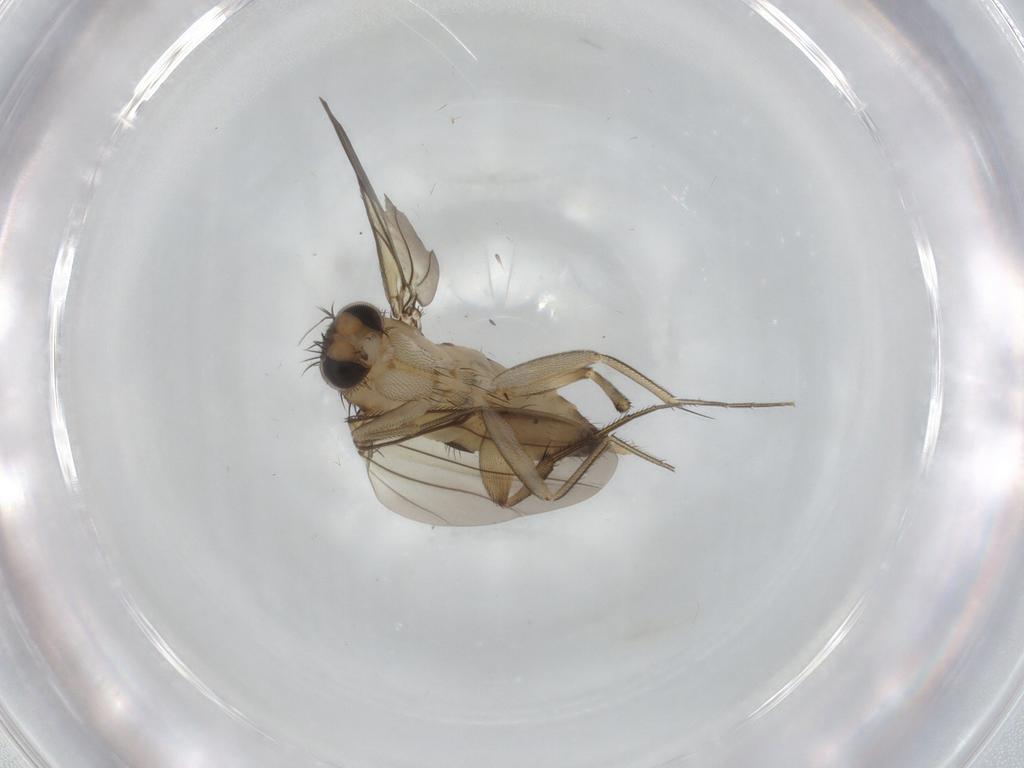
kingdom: Animalia
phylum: Arthropoda
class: Insecta
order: Diptera
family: Phoridae
